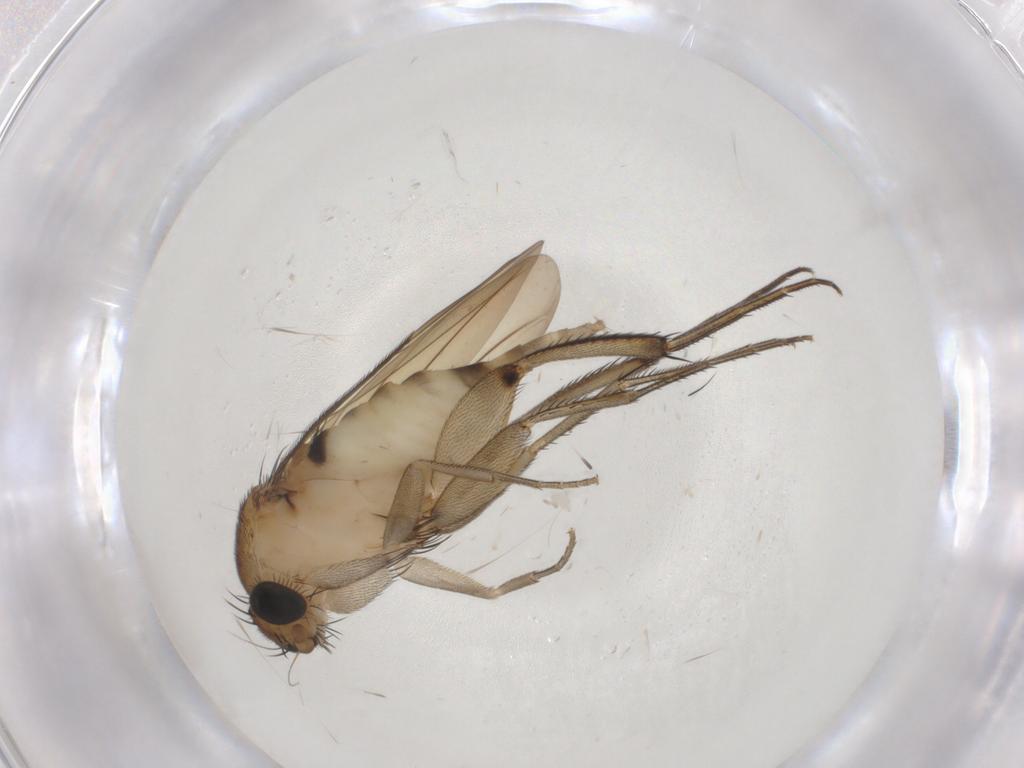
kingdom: Animalia
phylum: Arthropoda
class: Insecta
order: Diptera
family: Phoridae
